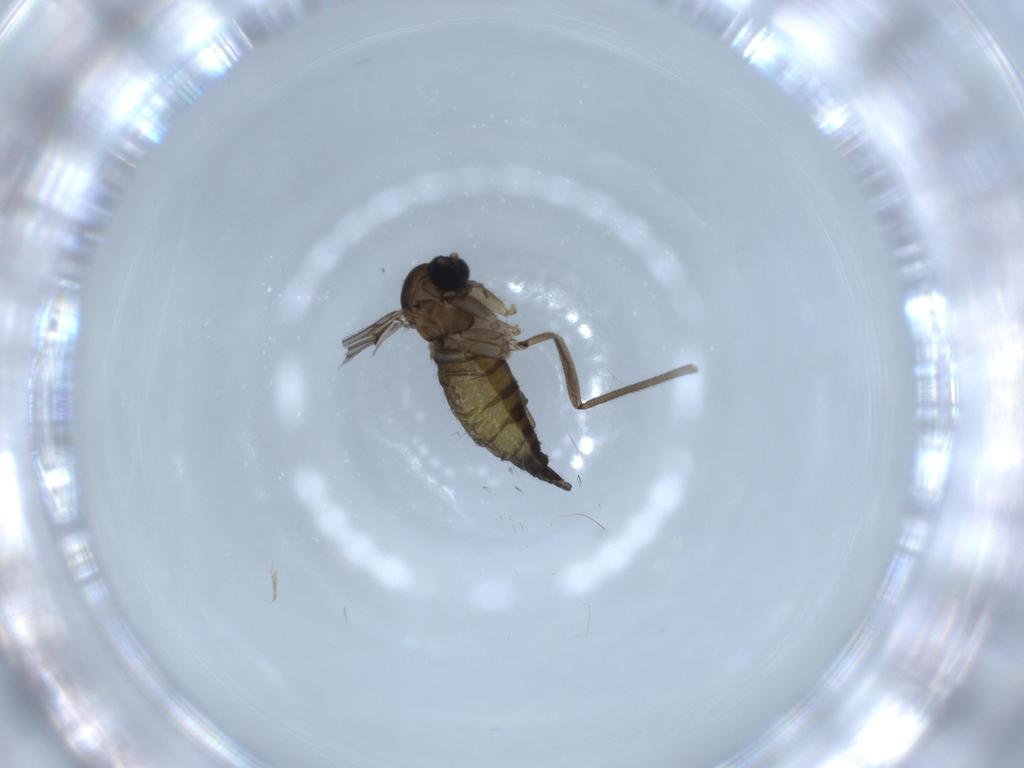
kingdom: Animalia
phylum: Arthropoda
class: Insecta
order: Diptera
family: Sciaridae
